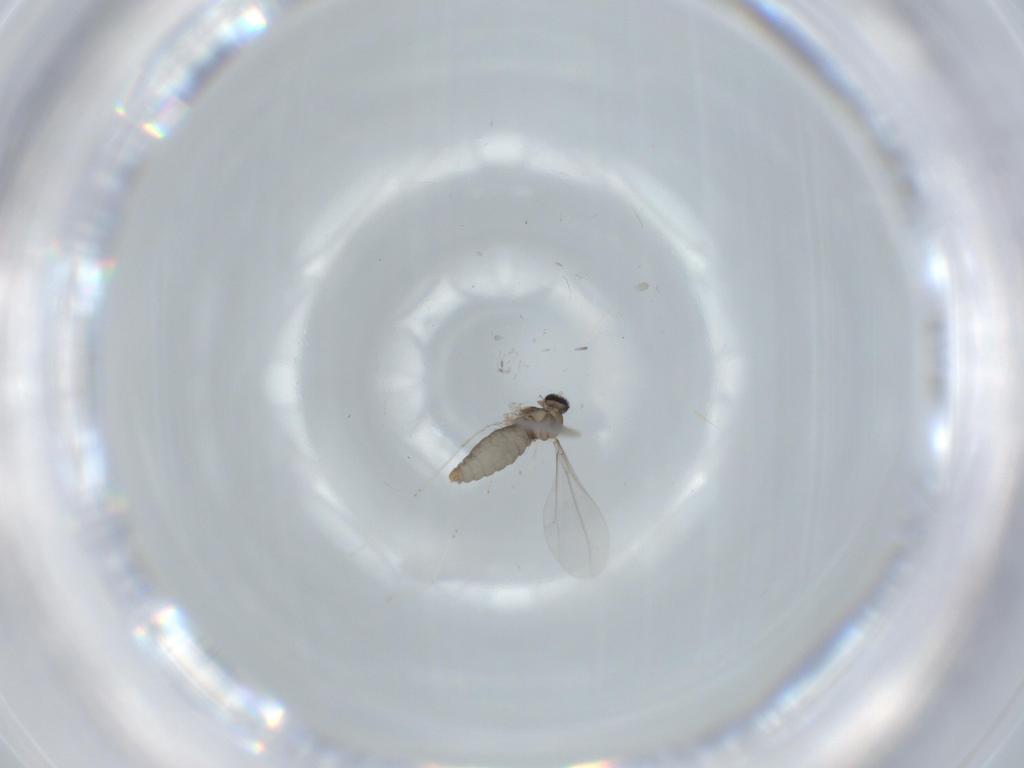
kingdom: Animalia
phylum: Arthropoda
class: Insecta
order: Diptera
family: Cecidomyiidae
